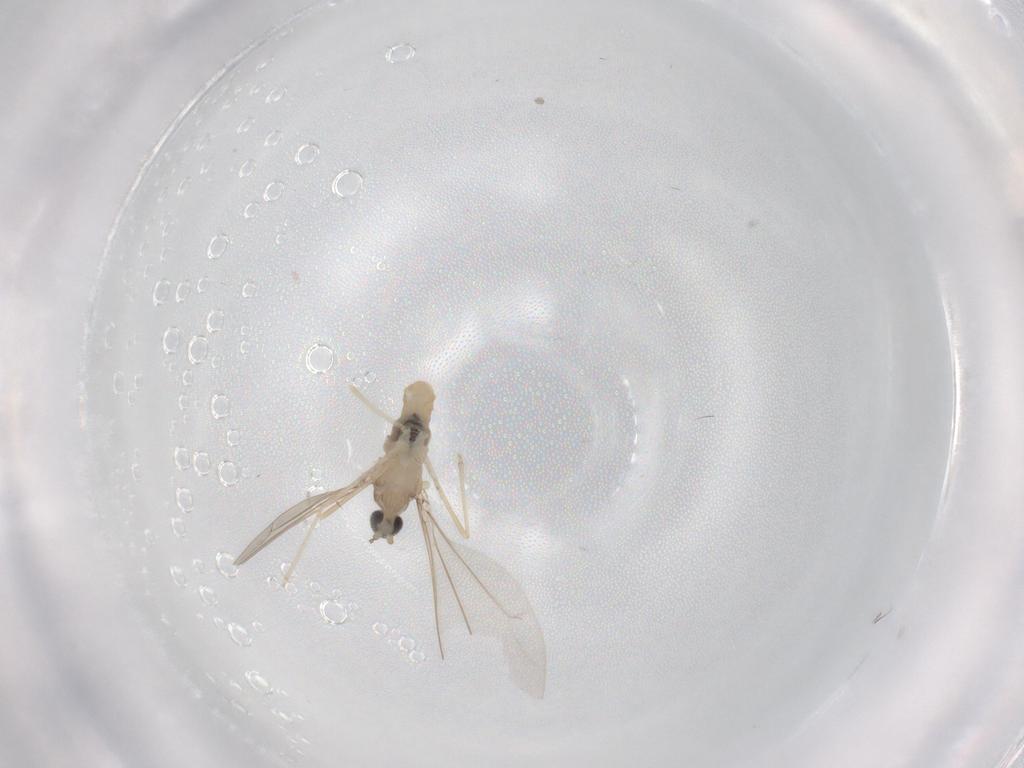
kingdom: Animalia
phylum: Arthropoda
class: Insecta
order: Diptera
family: Cecidomyiidae
